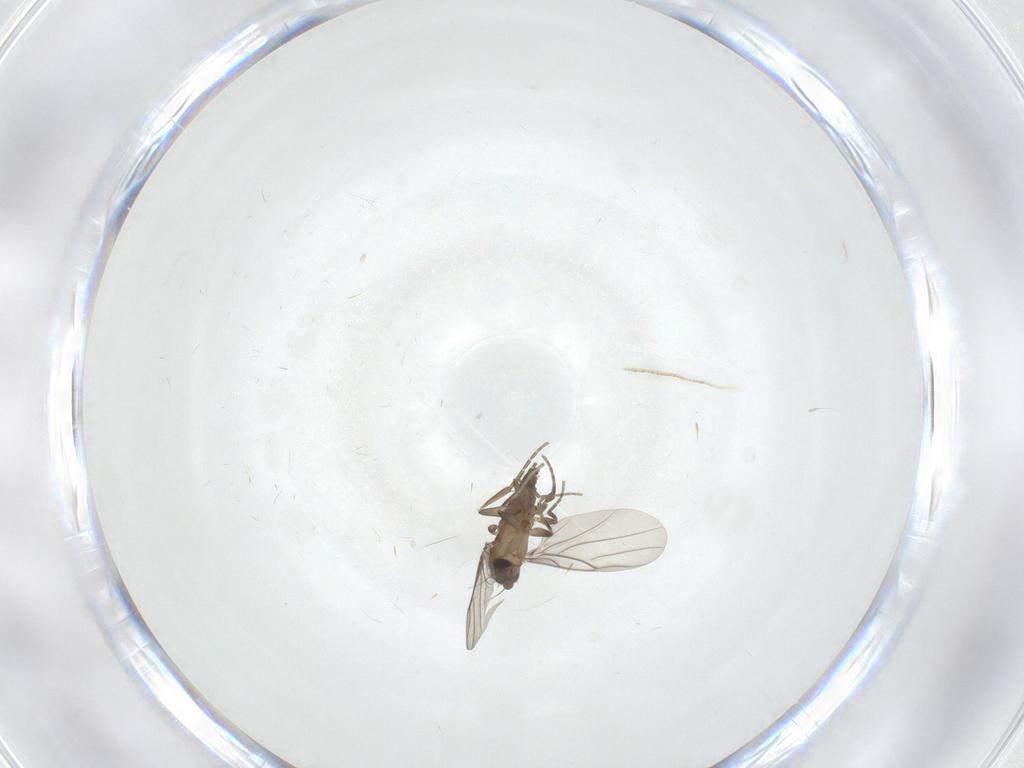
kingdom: Animalia
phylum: Arthropoda
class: Insecta
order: Diptera
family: Phoridae
